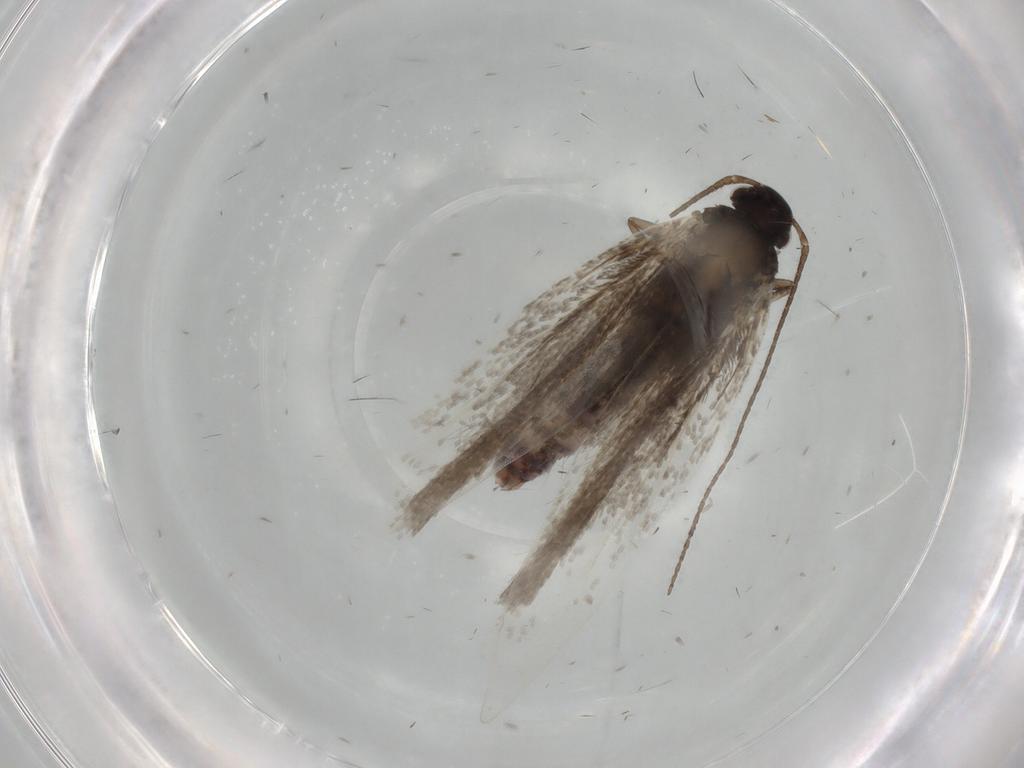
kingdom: Animalia
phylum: Arthropoda
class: Insecta
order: Lepidoptera
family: Gelechiidae
